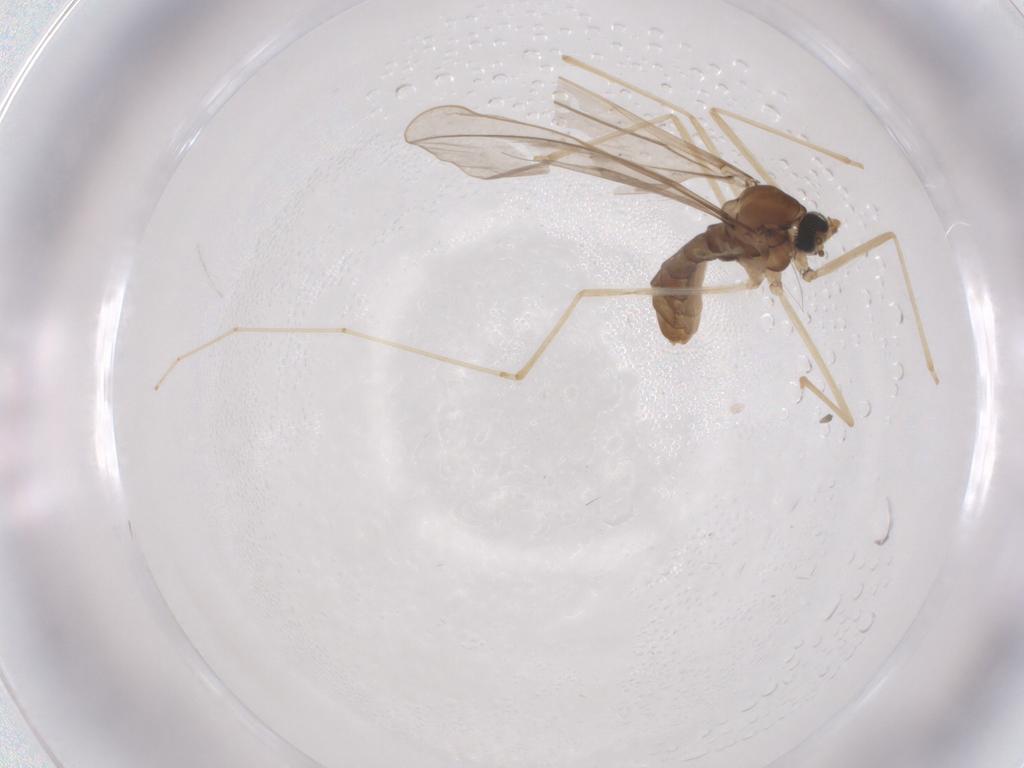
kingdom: Animalia
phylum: Arthropoda
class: Insecta
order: Diptera
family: Cecidomyiidae
